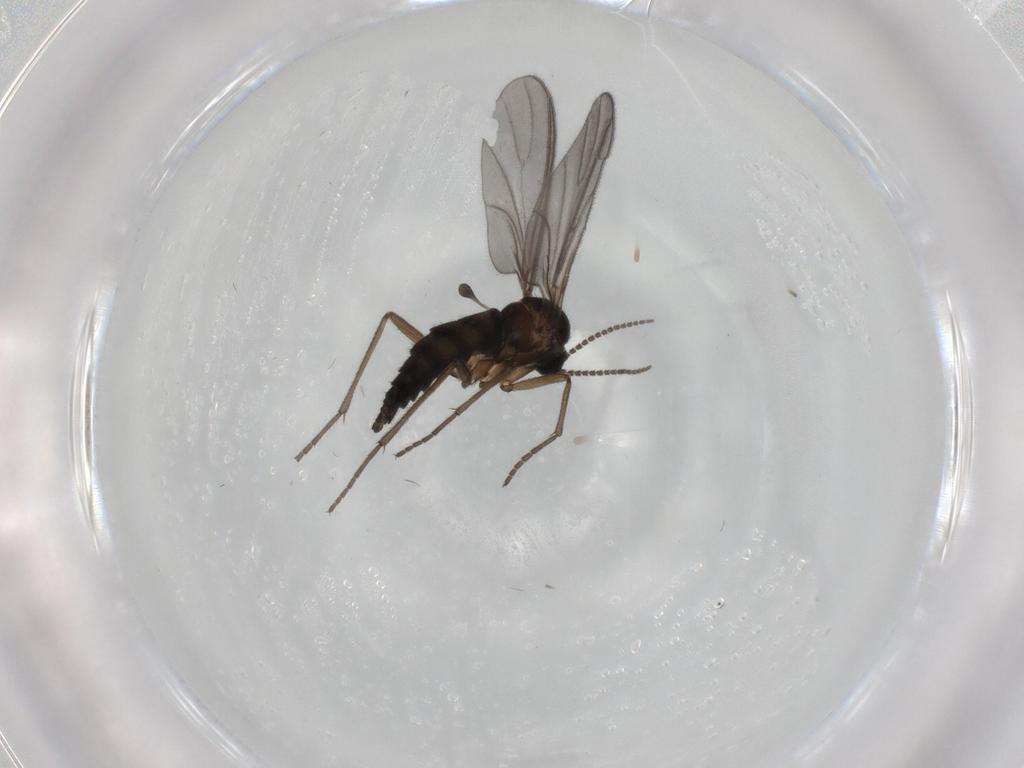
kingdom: Animalia
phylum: Arthropoda
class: Insecta
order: Diptera
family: Sciaridae
